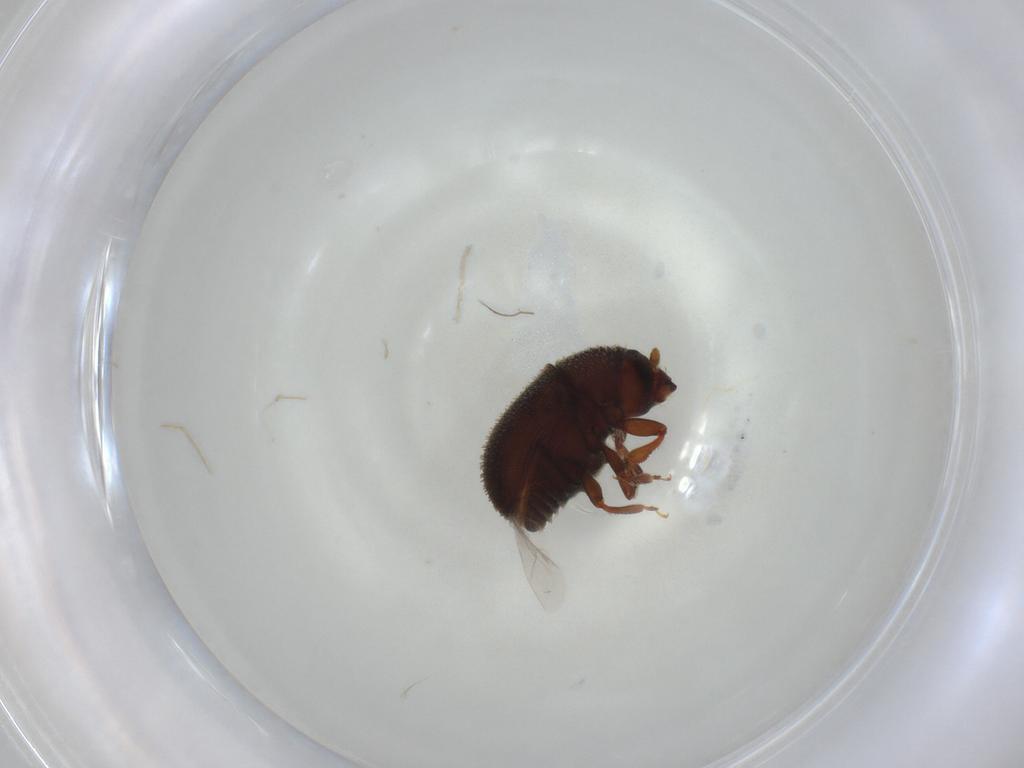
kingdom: Animalia
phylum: Arthropoda
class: Insecta
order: Coleoptera
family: Curculionidae
